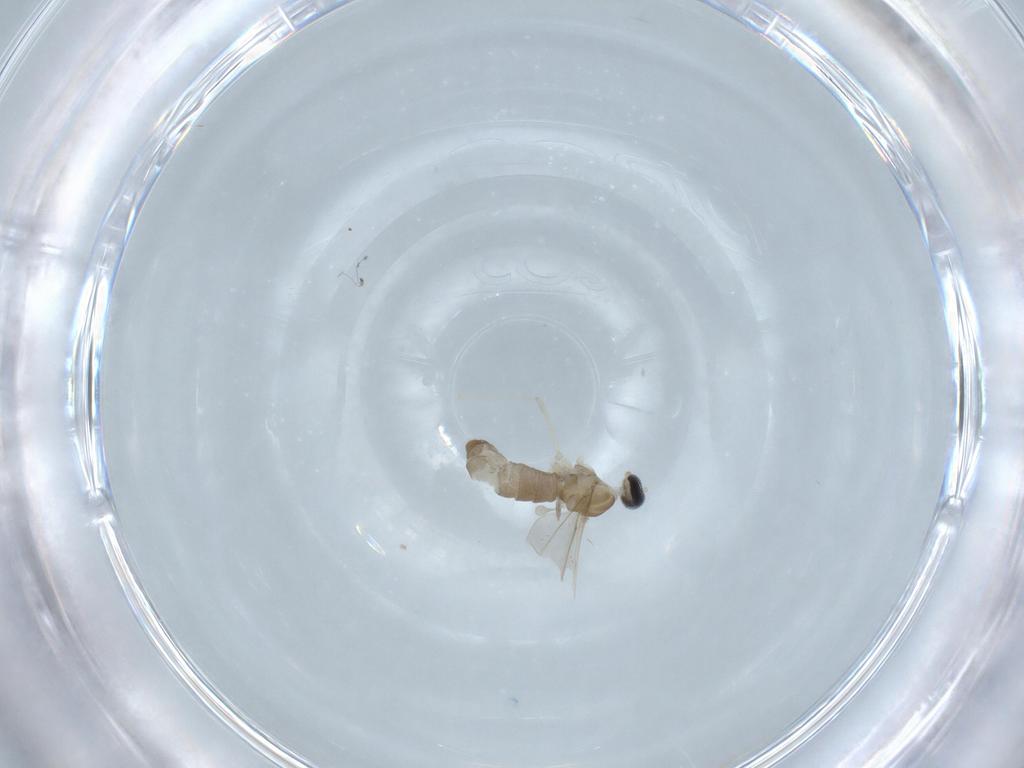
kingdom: Animalia
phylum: Arthropoda
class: Insecta
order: Diptera
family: Cecidomyiidae
